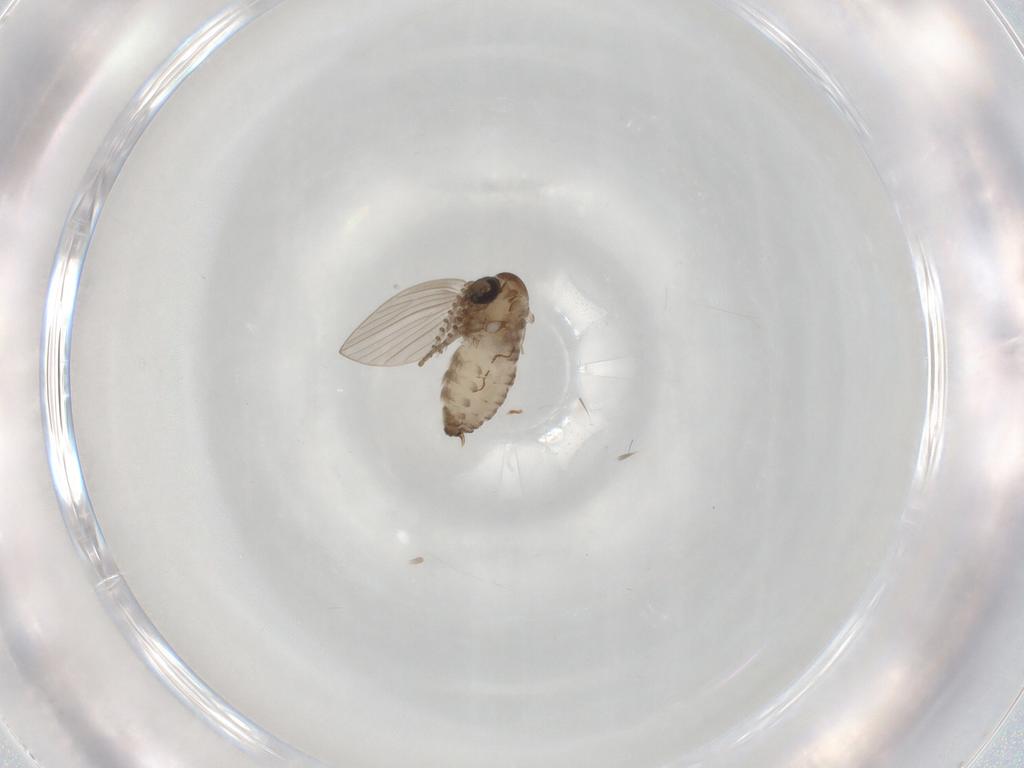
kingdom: Animalia
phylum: Arthropoda
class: Insecta
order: Diptera
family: Psychodidae
